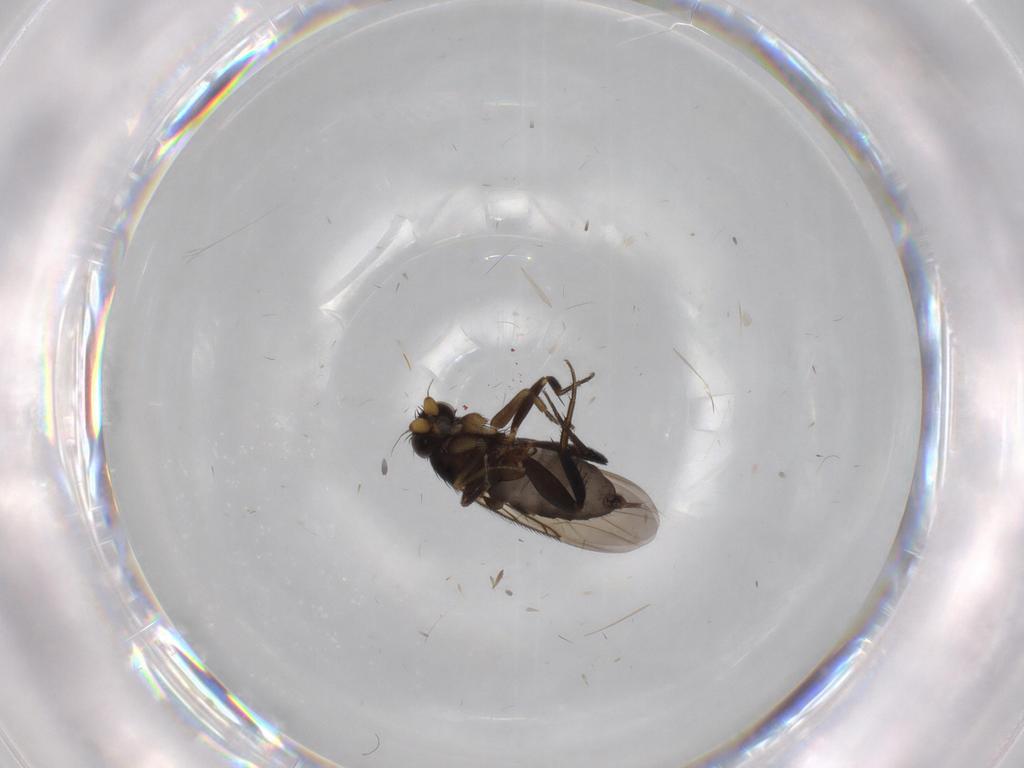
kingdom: Animalia
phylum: Arthropoda
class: Insecta
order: Diptera
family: Phoridae
